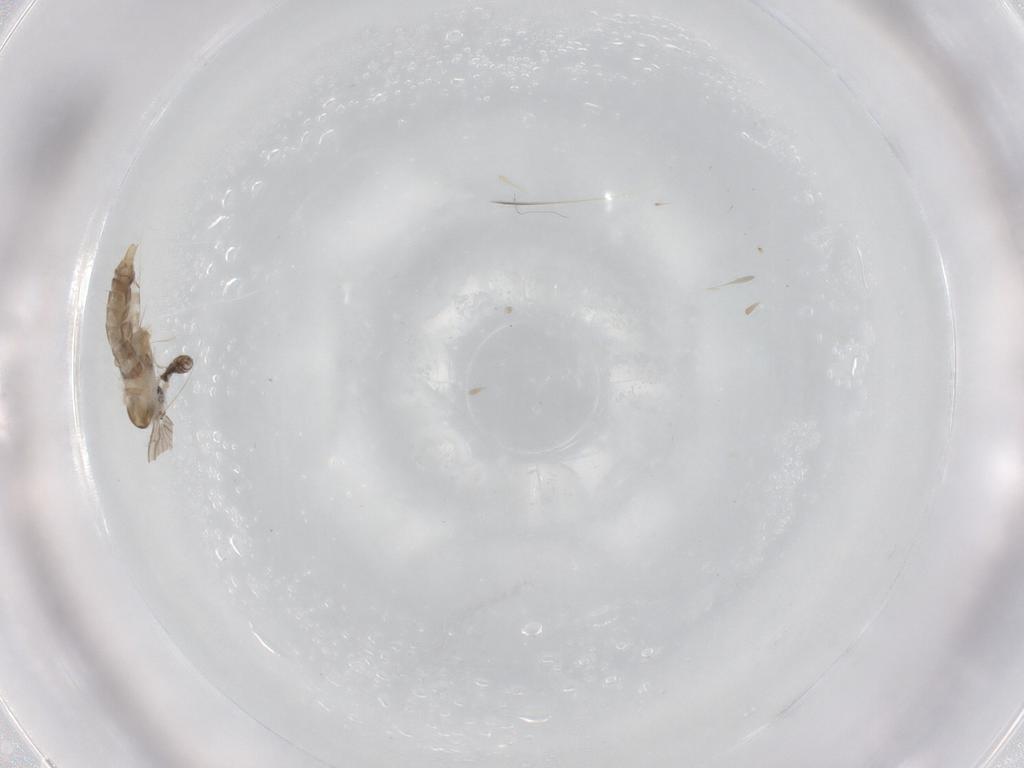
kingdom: Animalia
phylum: Arthropoda
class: Insecta
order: Diptera
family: Psychodidae
